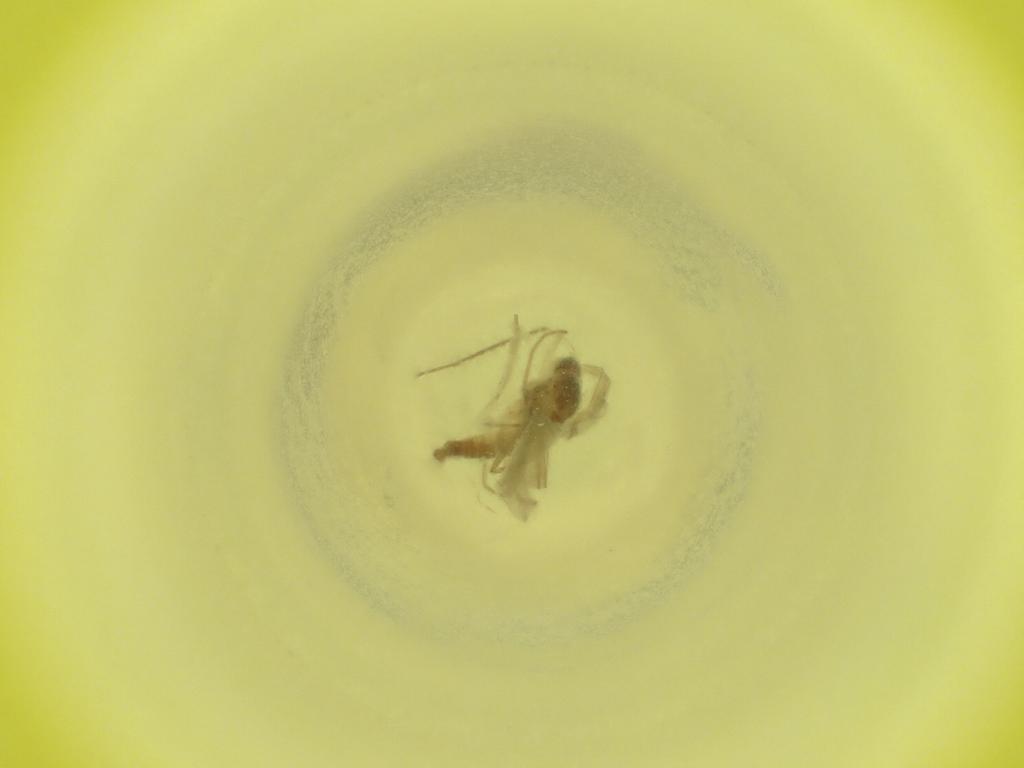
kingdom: Animalia
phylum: Arthropoda
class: Insecta
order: Diptera
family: Cecidomyiidae
